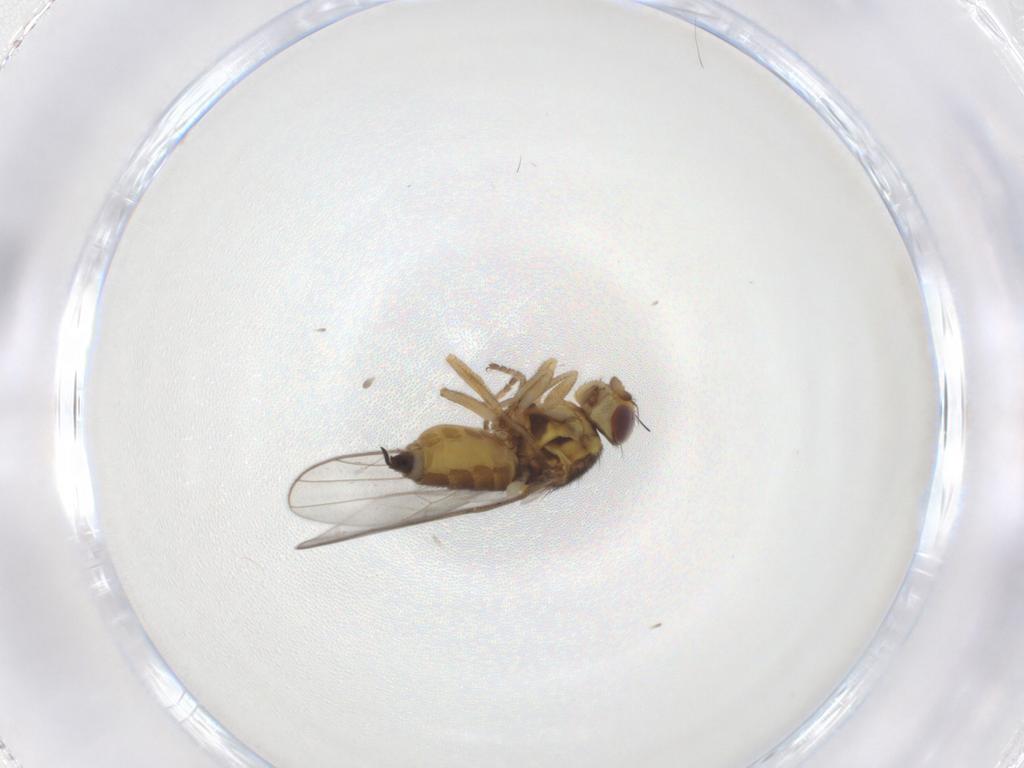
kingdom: Animalia
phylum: Arthropoda
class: Insecta
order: Diptera
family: Chloropidae
